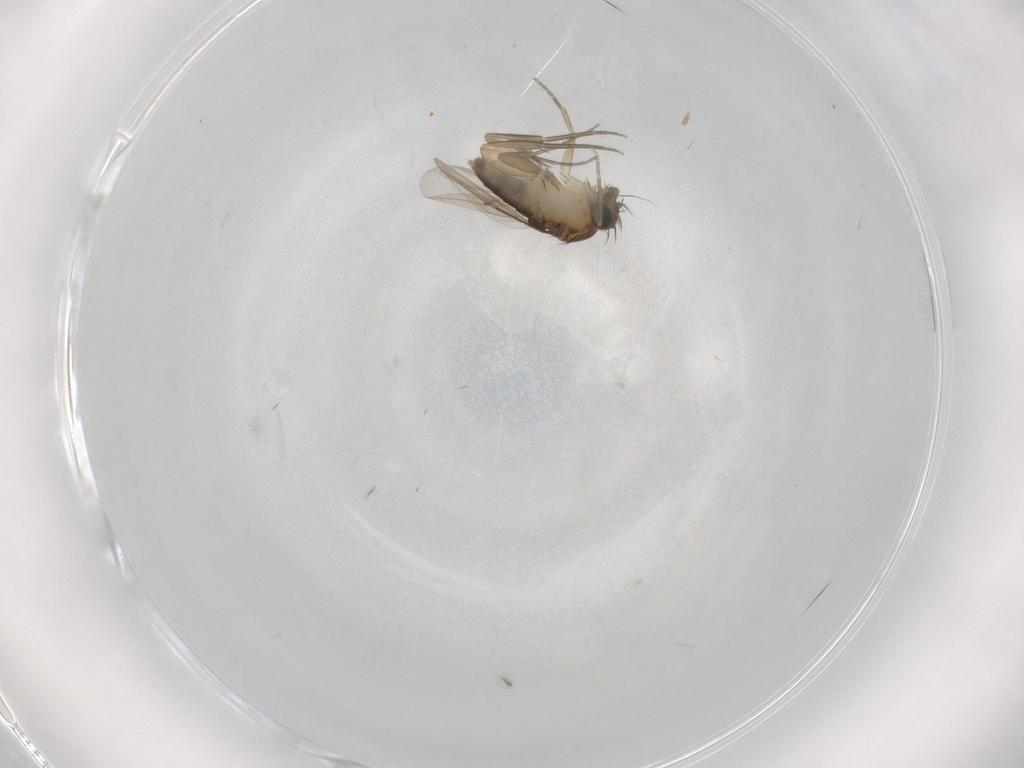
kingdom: Animalia
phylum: Arthropoda
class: Insecta
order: Diptera
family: Phoridae
